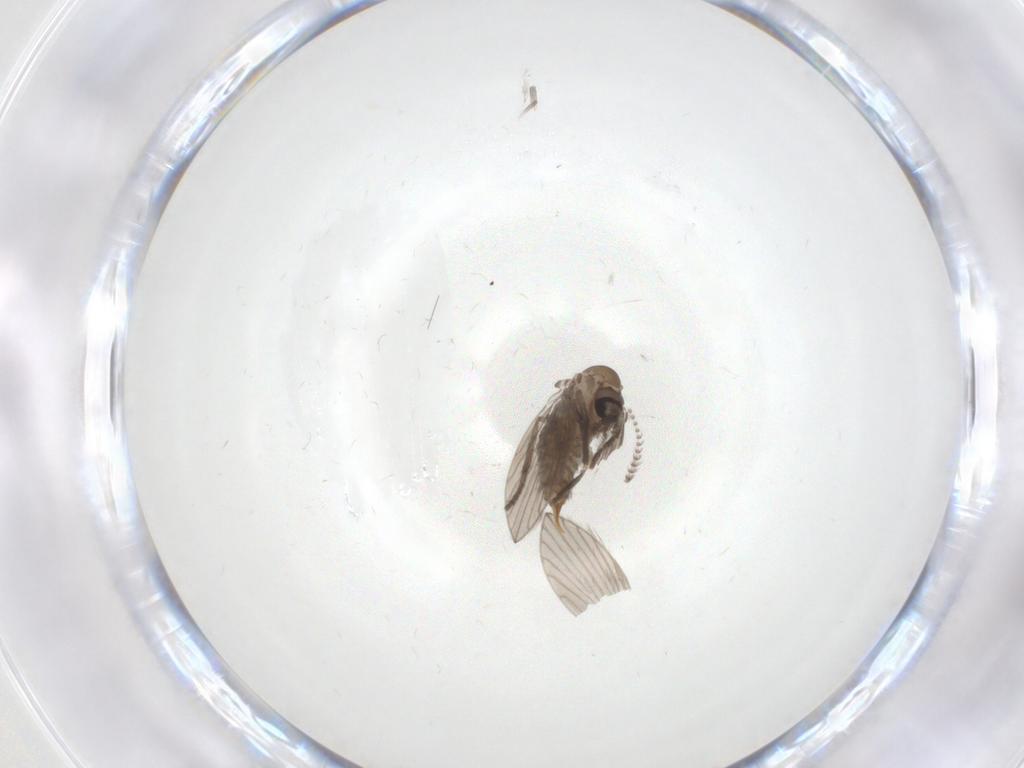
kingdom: Animalia
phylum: Arthropoda
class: Insecta
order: Diptera
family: Psychodidae
